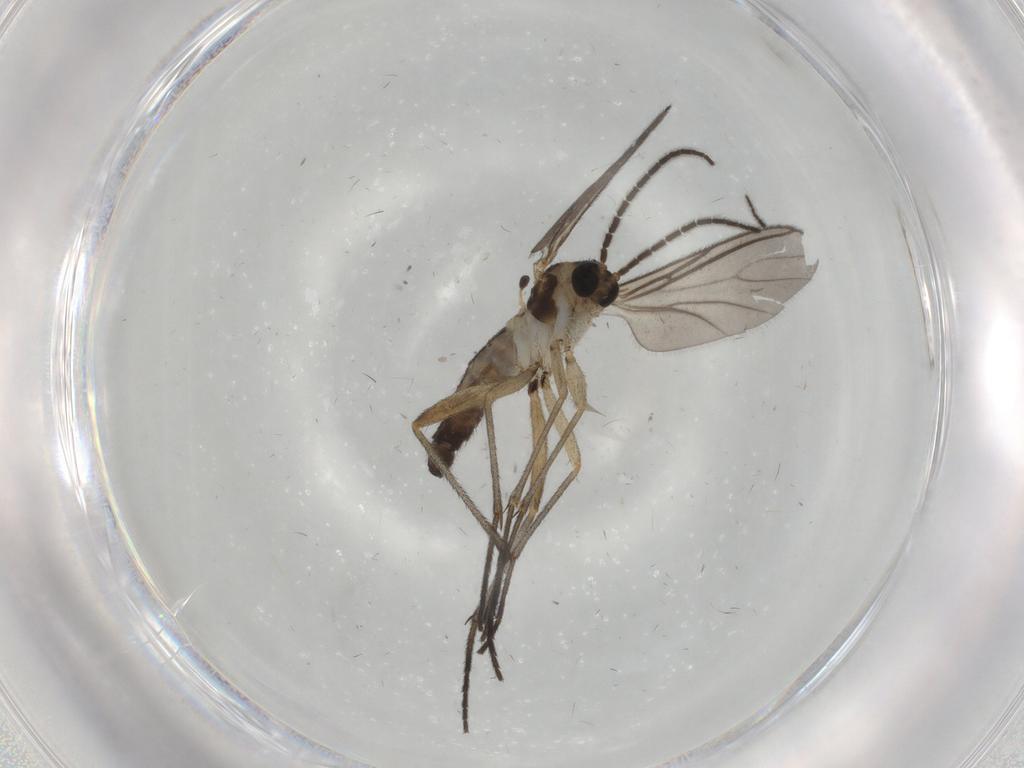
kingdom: Animalia
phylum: Arthropoda
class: Insecta
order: Diptera
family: Sciaridae
